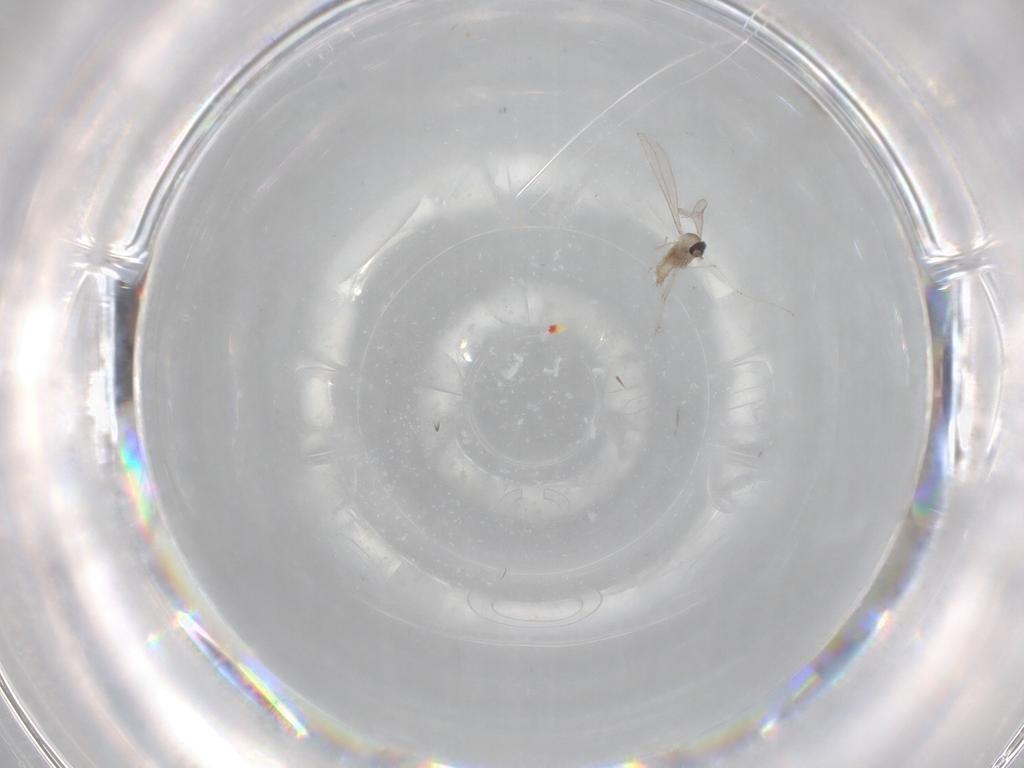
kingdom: Animalia
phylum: Arthropoda
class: Insecta
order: Diptera
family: Cecidomyiidae
